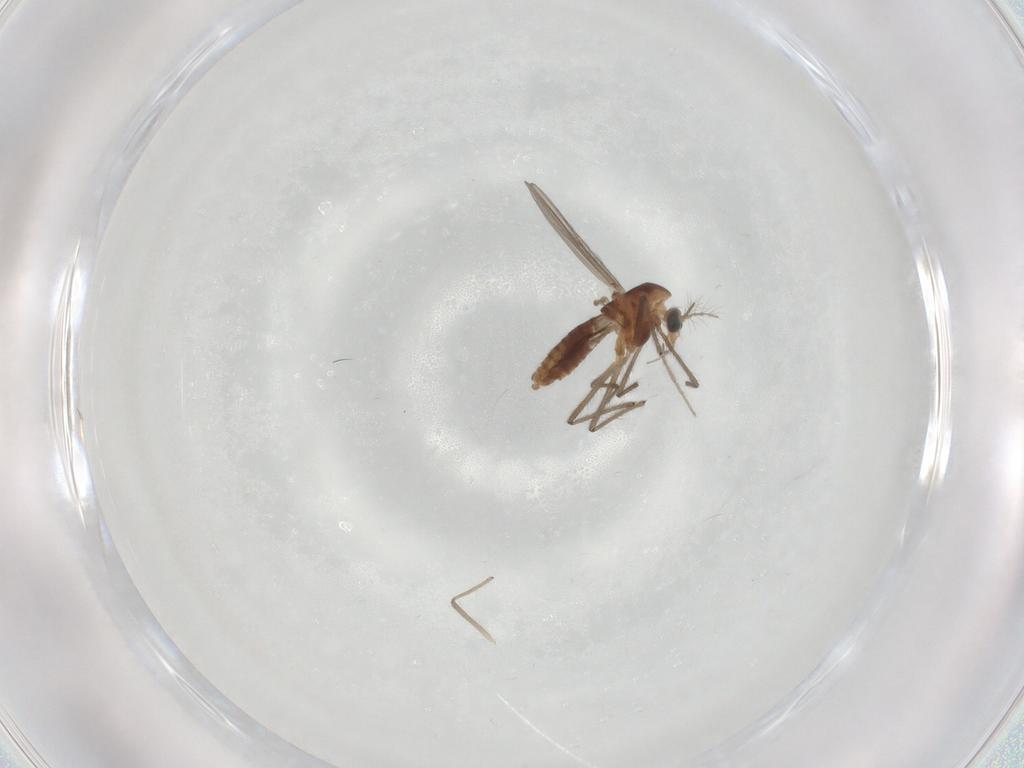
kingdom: Animalia
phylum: Arthropoda
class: Insecta
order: Diptera
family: Chironomidae
